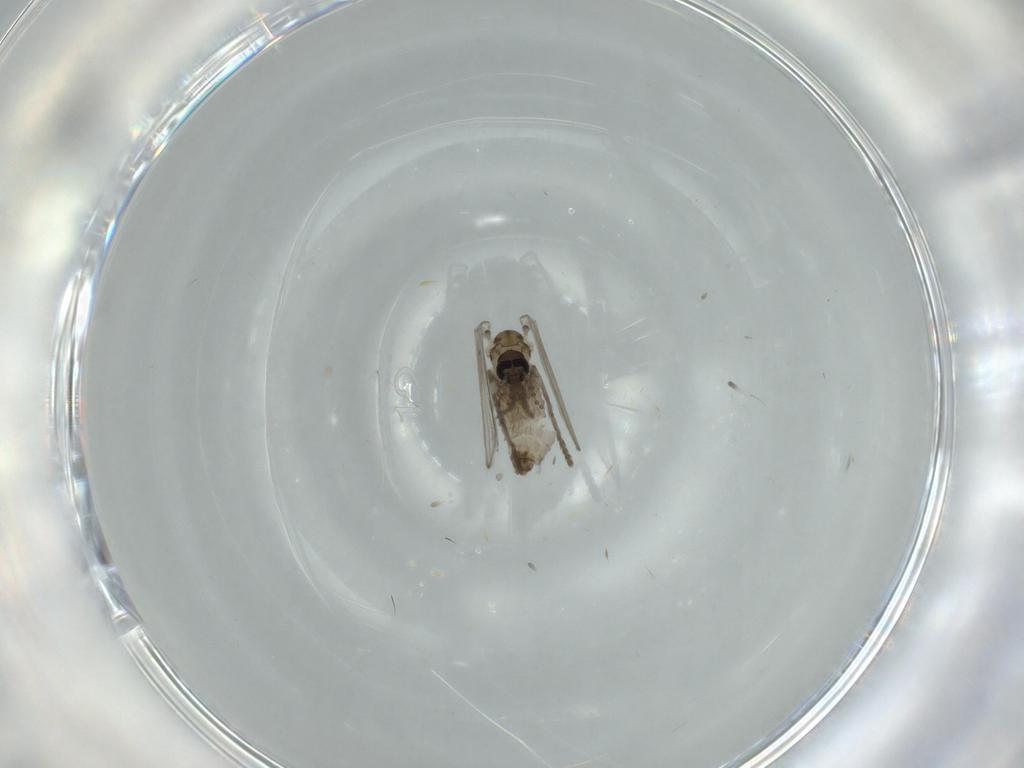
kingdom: Animalia
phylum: Arthropoda
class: Insecta
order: Diptera
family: Psychodidae
